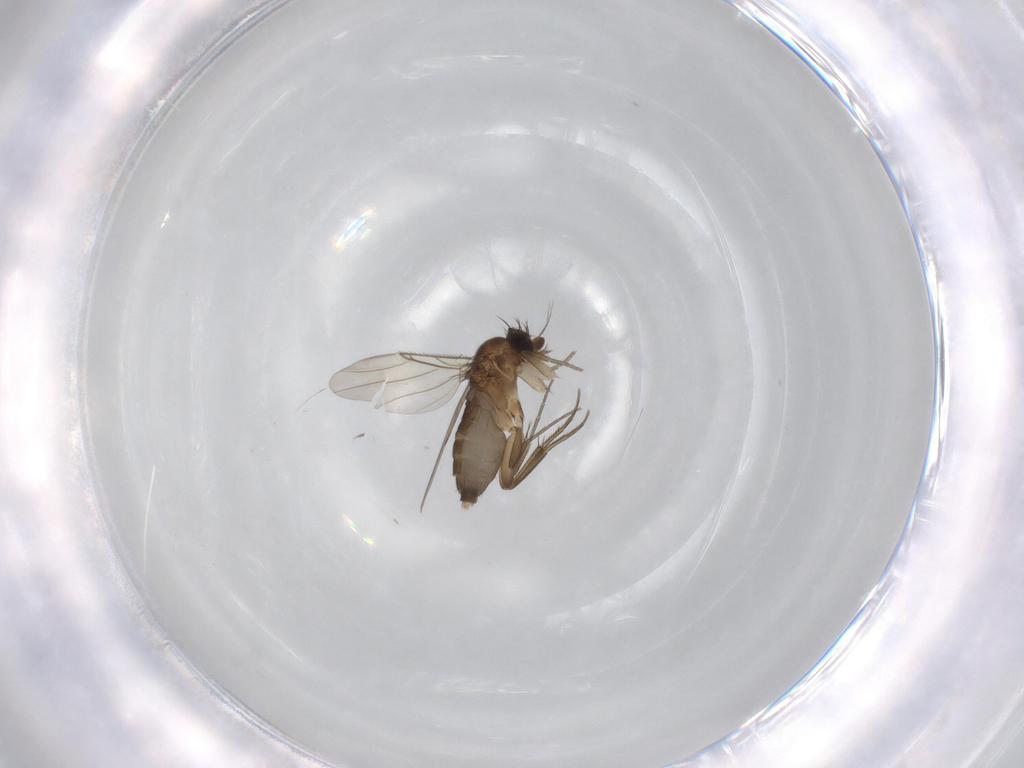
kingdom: Animalia
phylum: Arthropoda
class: Insecta
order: Diptera
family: Phoridae
